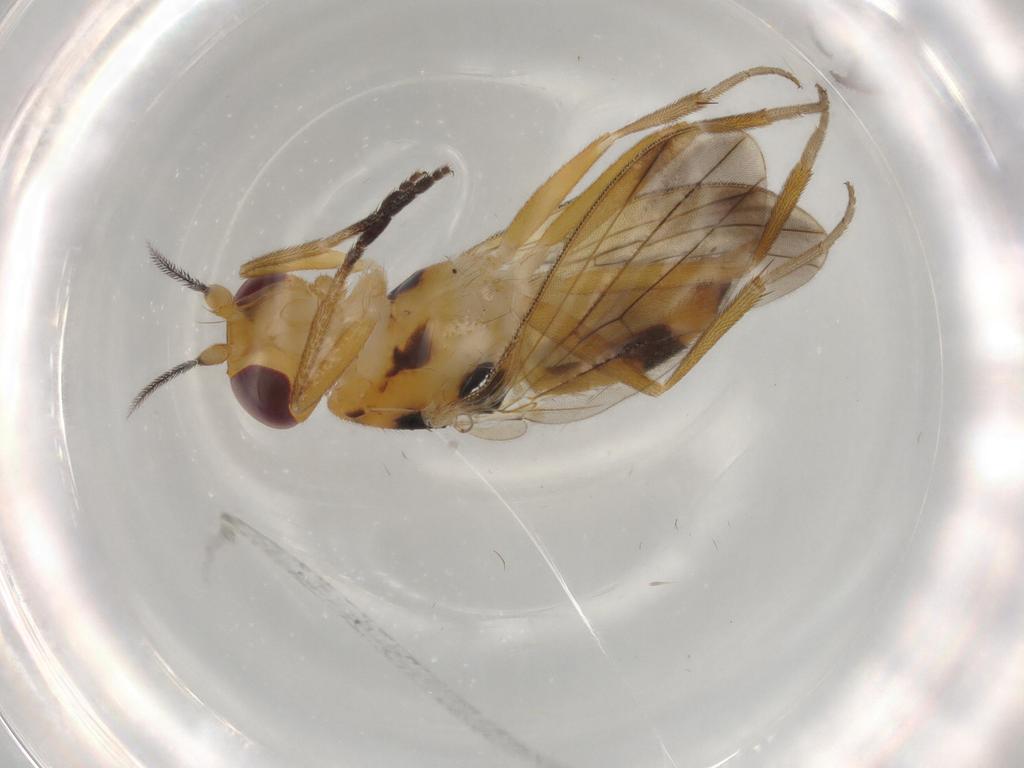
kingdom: Animalia
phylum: Arthropoda
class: Insecta
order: Diptera
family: Clusiidae
